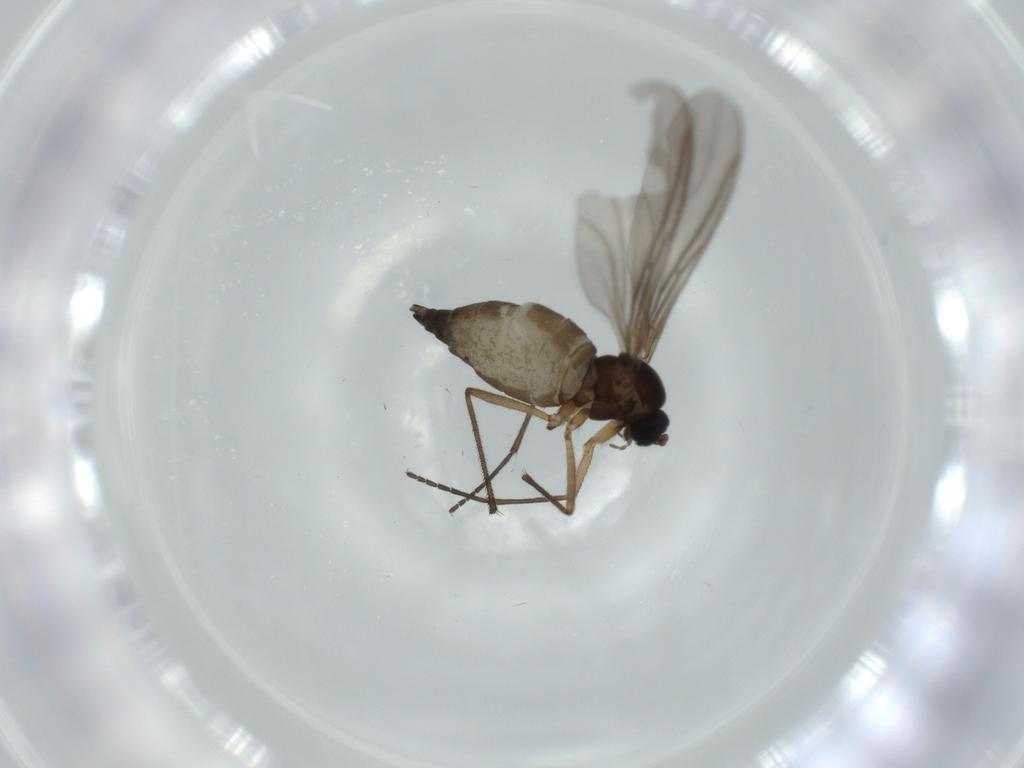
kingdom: Animalia
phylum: Arthropoda
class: Insecta
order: Diptera
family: Sciaridae
